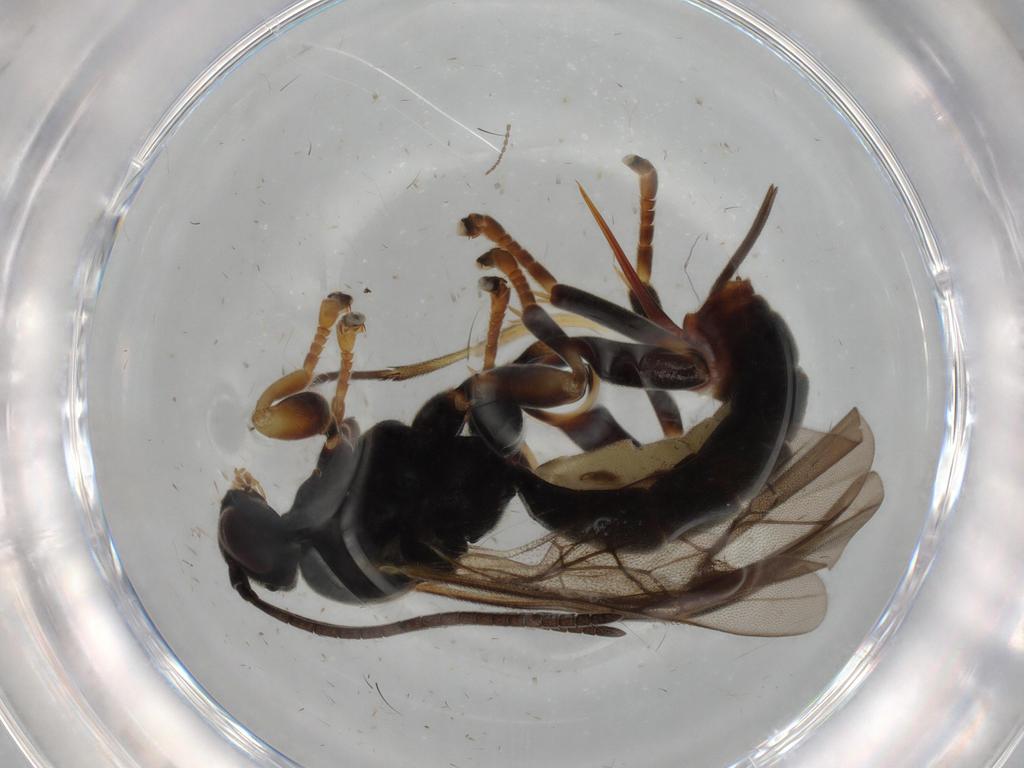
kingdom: Animalia
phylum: Arthropoda
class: Insecta
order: Hymenoptera
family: Ichneumonidae
